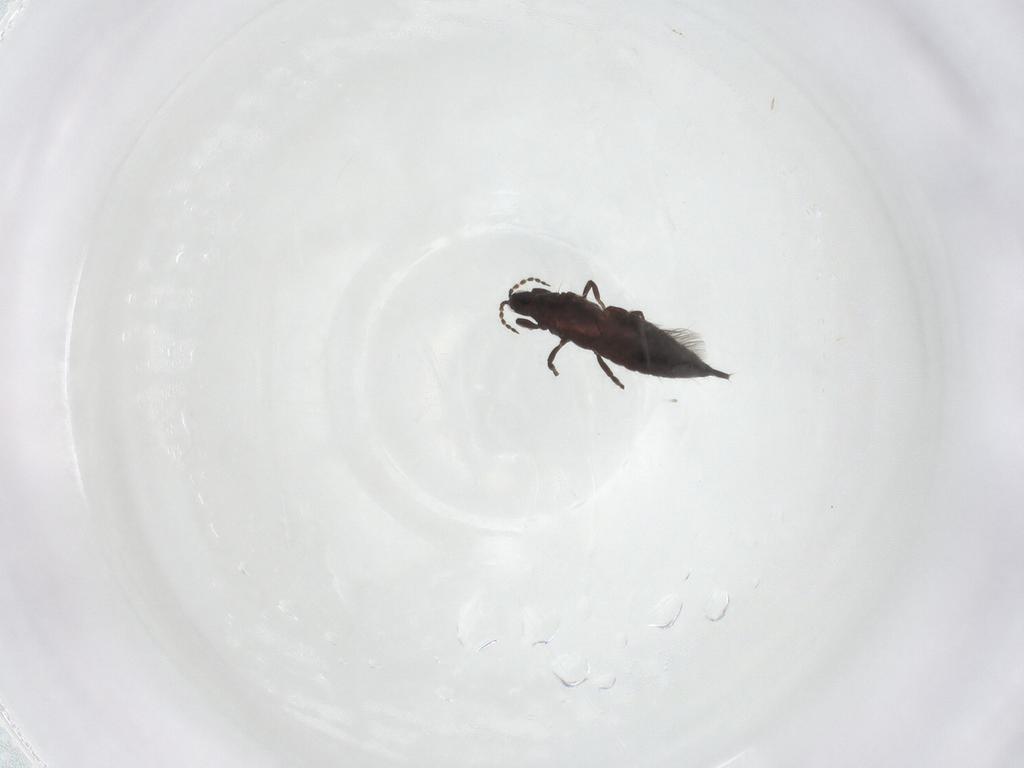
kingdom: Animalia
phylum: Arthropoda
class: Insecta
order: Thysanoptera
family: Phlaeothripidae
